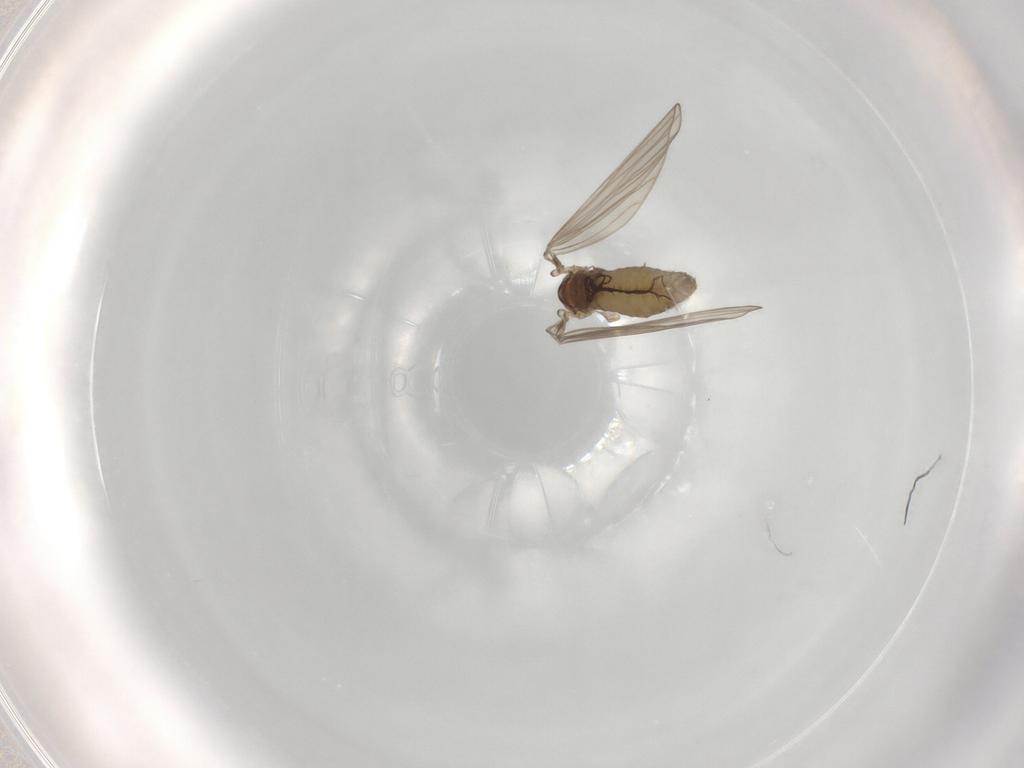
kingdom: Animalia
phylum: Arthropoda
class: Insecta
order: Diptera
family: Psychodidae
